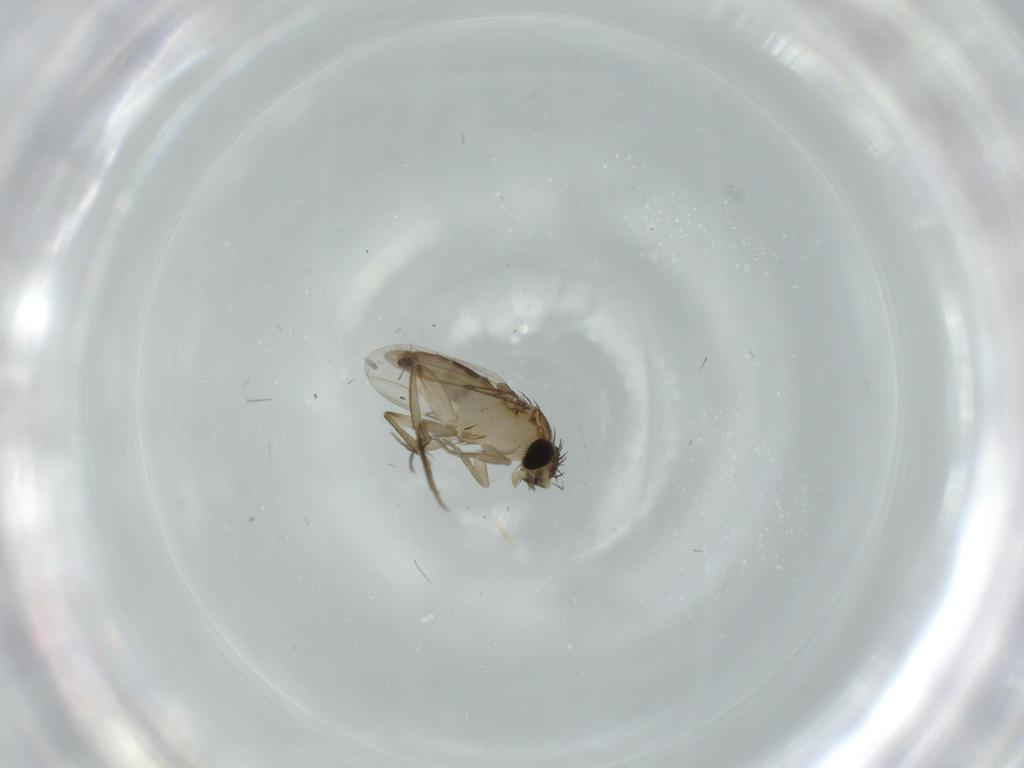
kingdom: Animalia
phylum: Arthropoda
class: Insecta
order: Diptera
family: Phoridae
